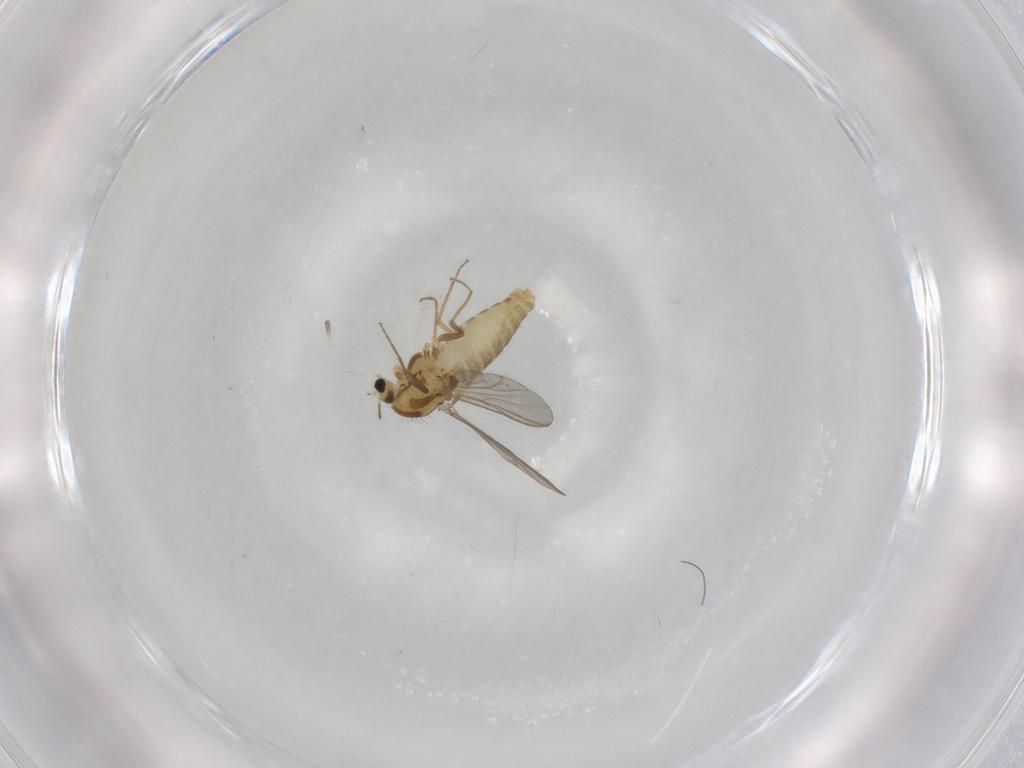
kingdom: Animalia
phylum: Arthropoda
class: Insecta
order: Diptera
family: Chironomidae
